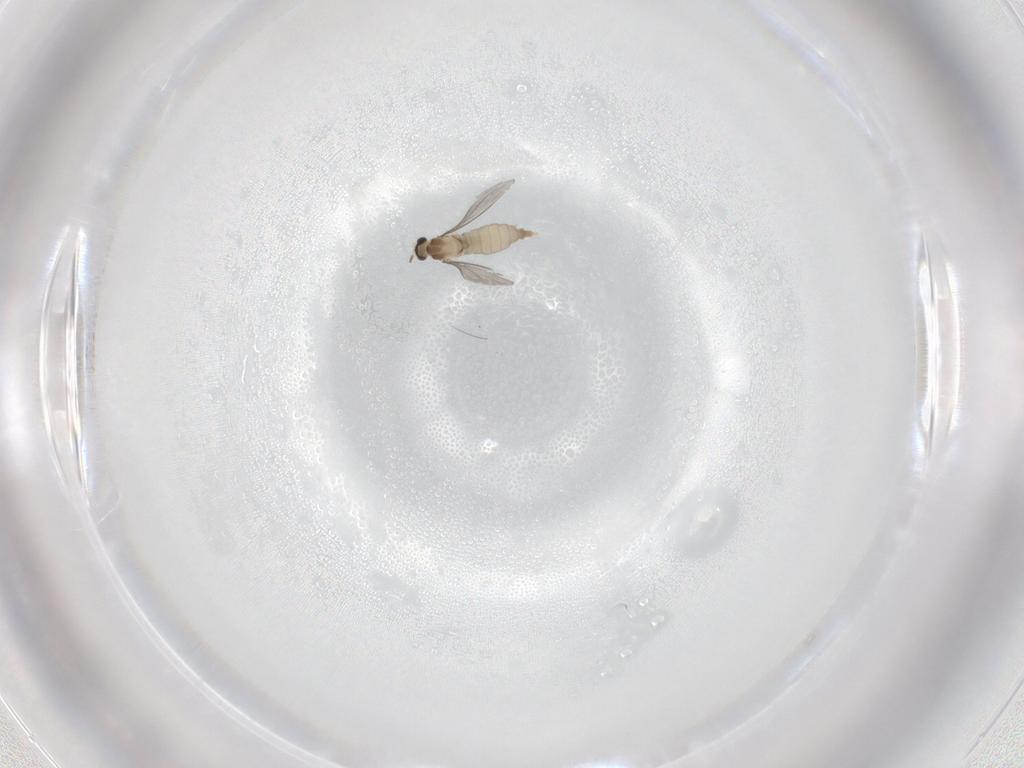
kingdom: Animalia
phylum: Arthropoda
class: Insecta
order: Diptera
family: Cecidomyiidae
